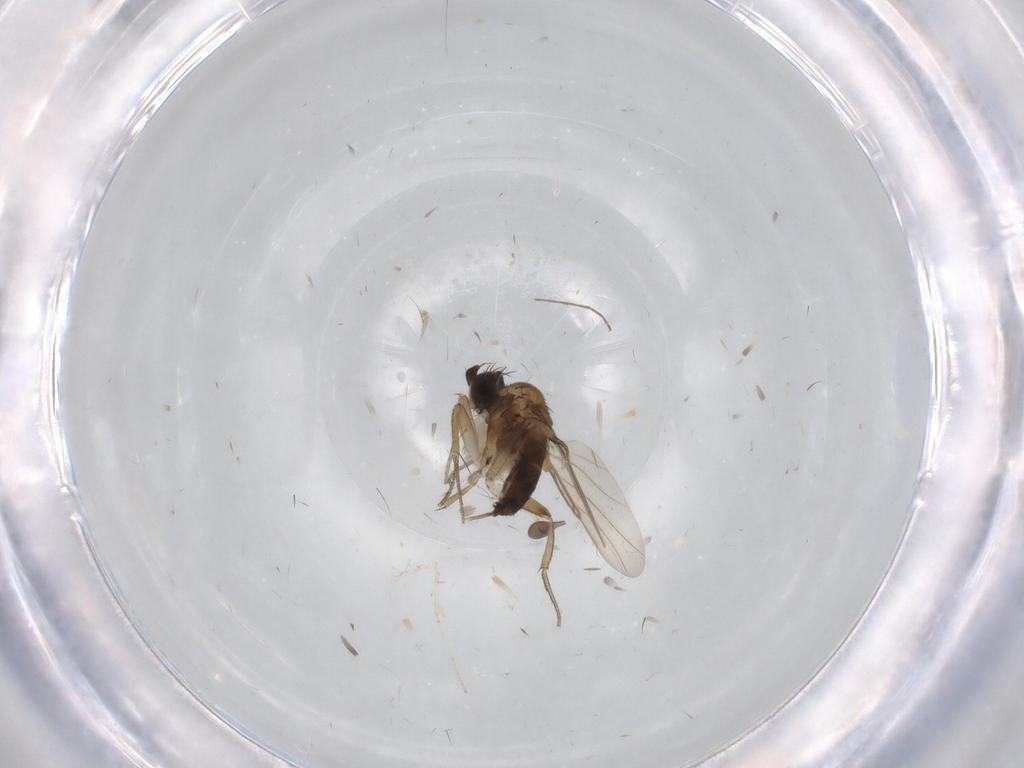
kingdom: Animalia
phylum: Arthropoda
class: Insecta
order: Diptera
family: Phoridae
